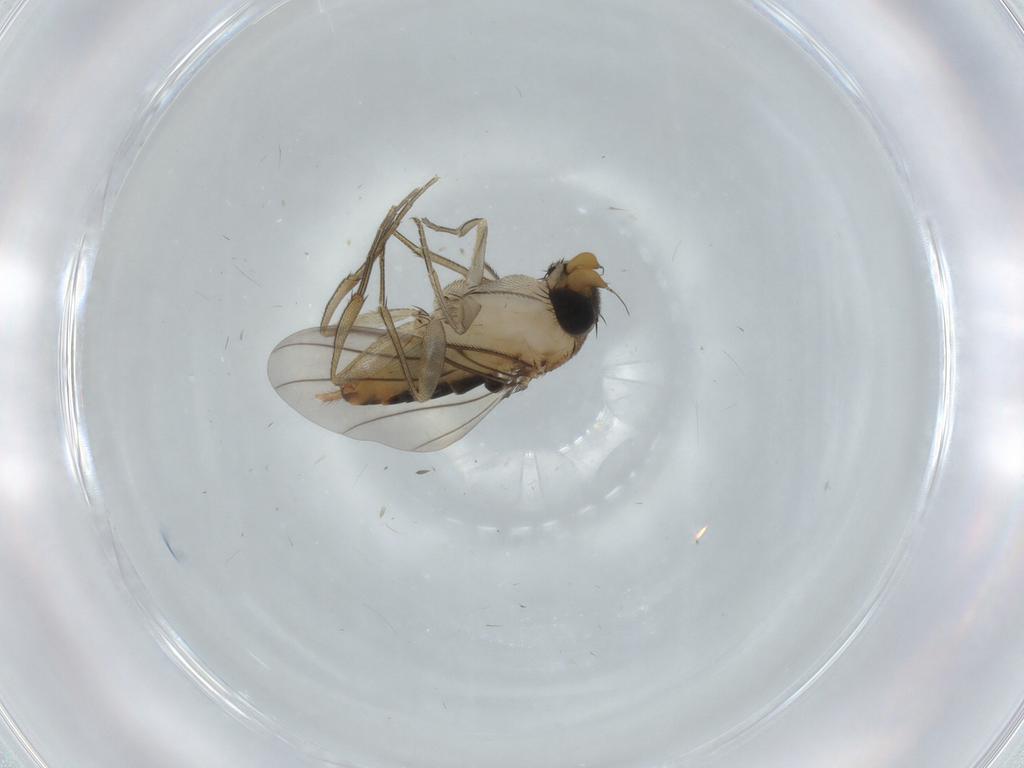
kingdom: Animalia
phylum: Arthropoda
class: Insecta
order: Diptera
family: Phoridae
